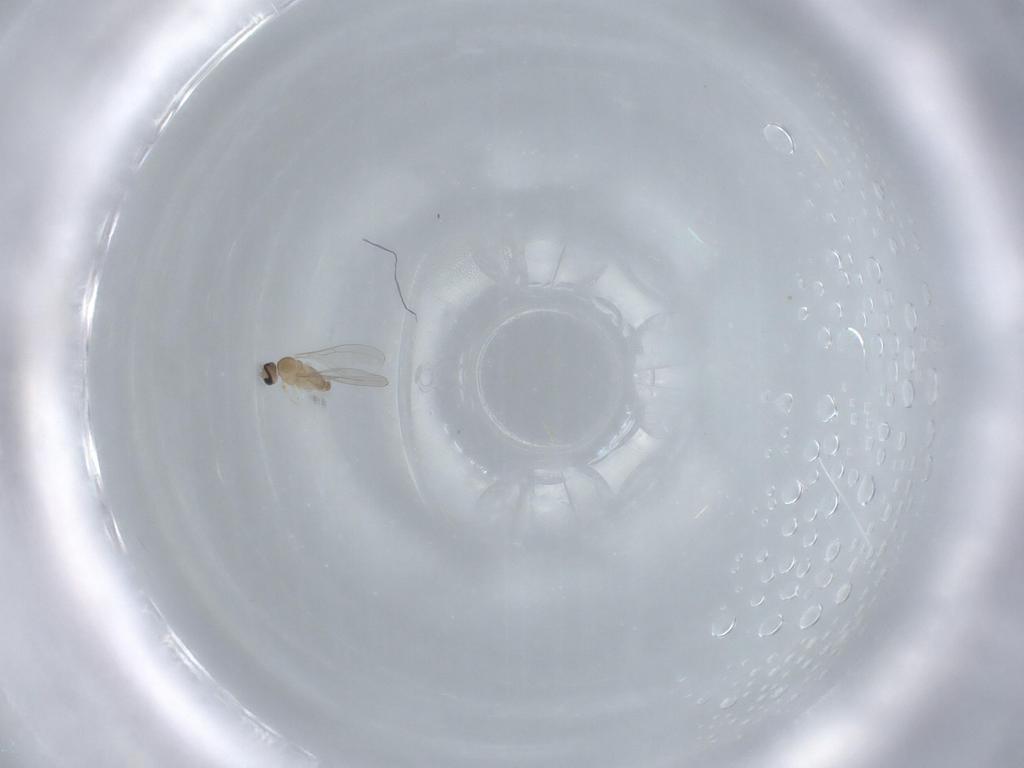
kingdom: Animalia
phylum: Arthropoda
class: Insecta
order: Diptera
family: Cecidomyiidae
